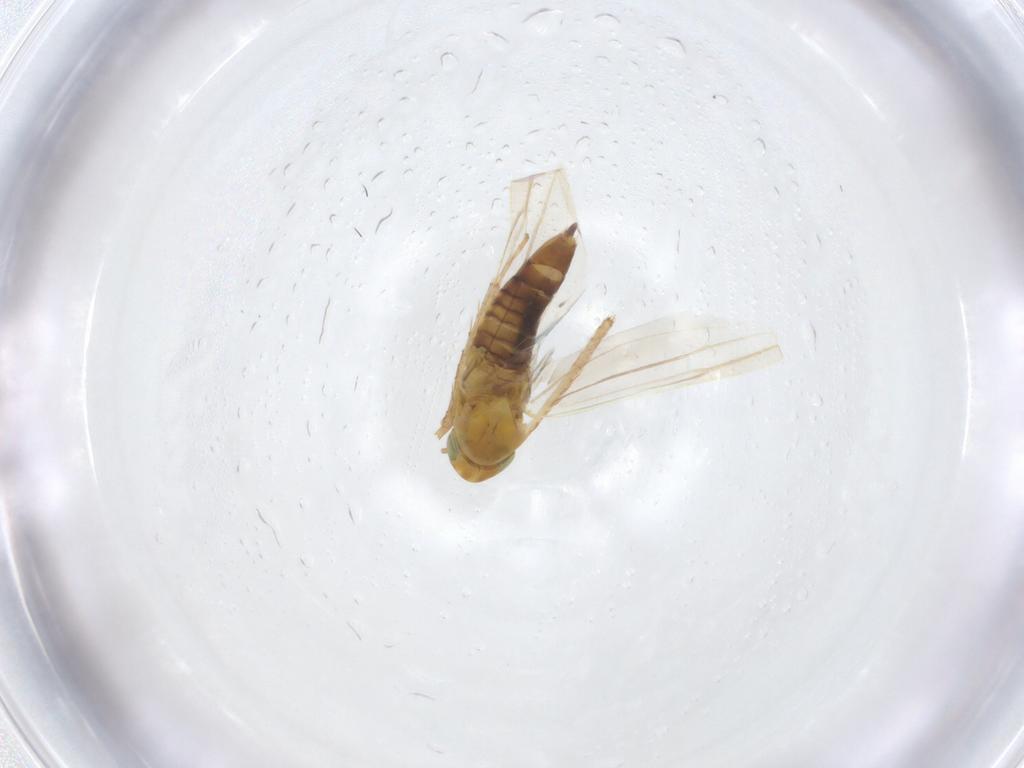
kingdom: Animalia
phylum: Arthropoda
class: Insecta
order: Hemiptera
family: Cicadellidae
